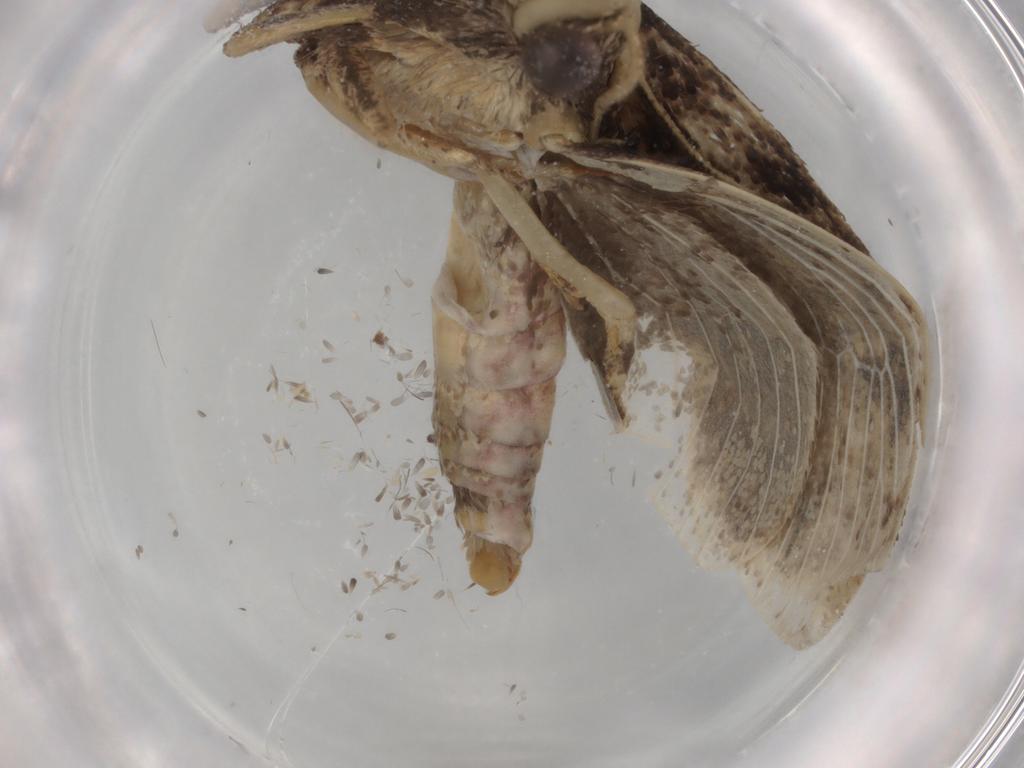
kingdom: Animalia
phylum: Arthropoda
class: Insecta
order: Lepidoptera
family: Tineidae
